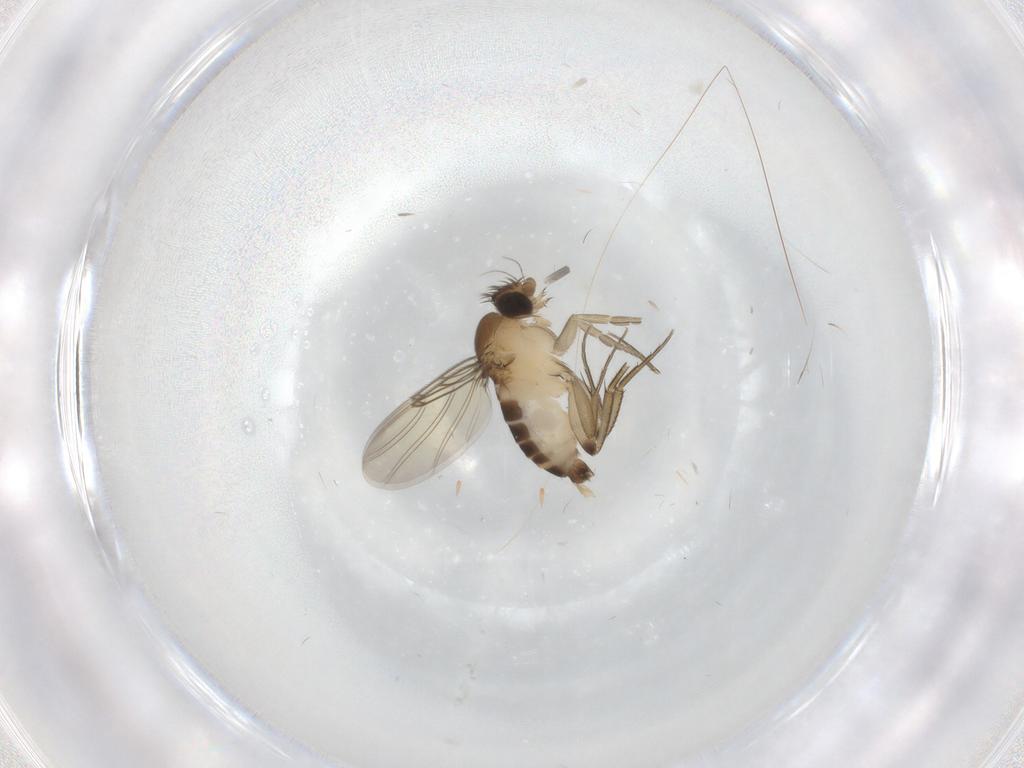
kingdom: Animalia
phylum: Arthropoda
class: Insecta
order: Diptera
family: Phoridae
